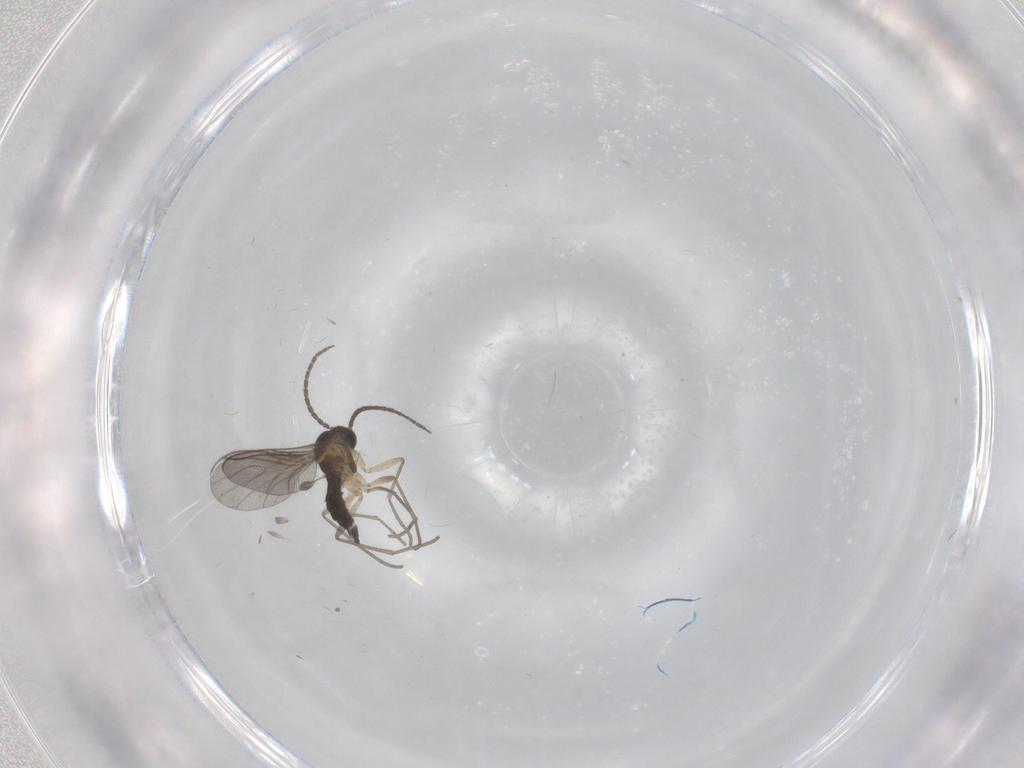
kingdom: Animalia
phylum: Arthropoda
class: Insecta
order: Diptera
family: Sciaridae
